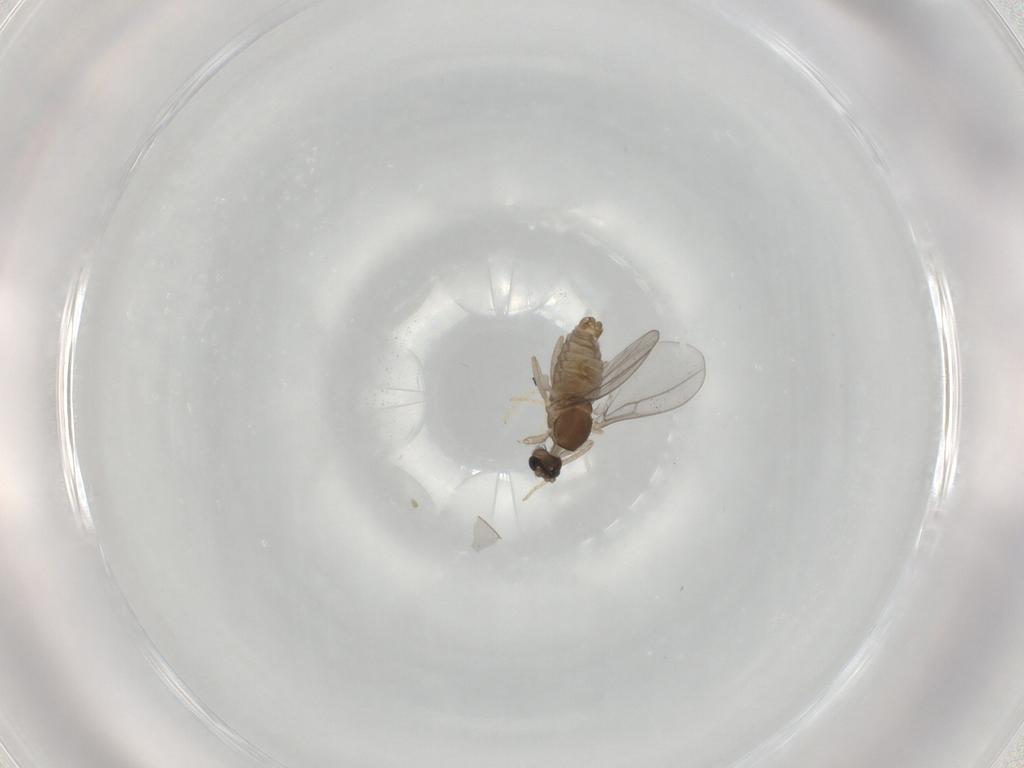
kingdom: Animalia
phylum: Arthropoda
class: Insecta
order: Diptera
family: Cecidomyiidae
